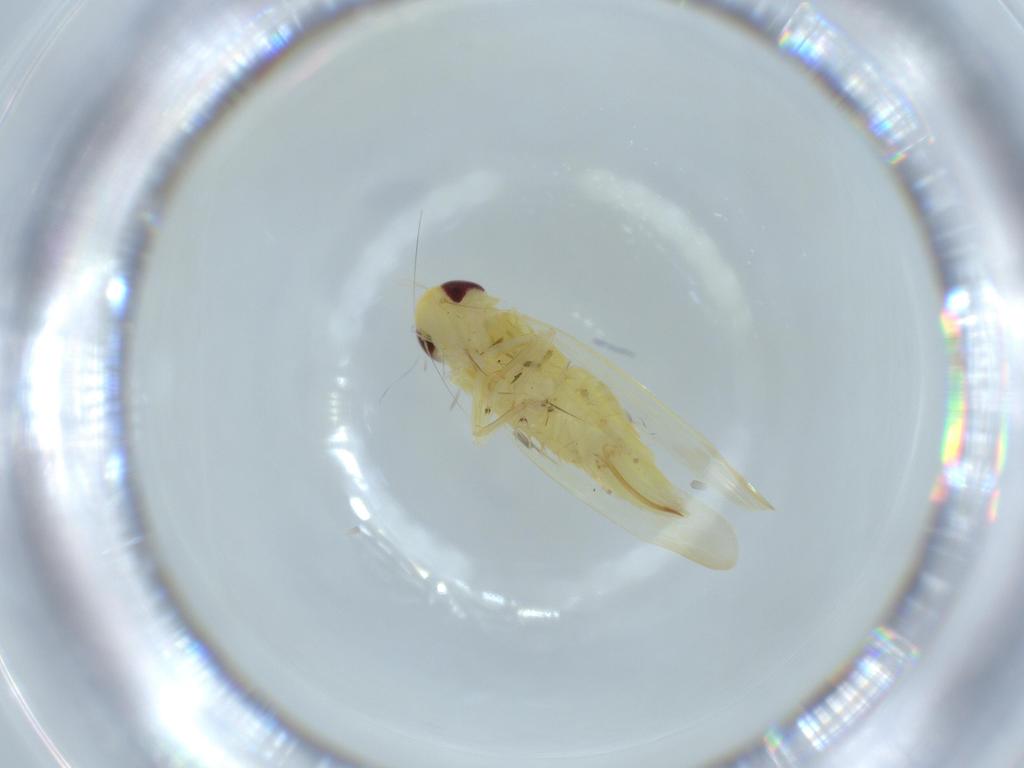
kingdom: Animalia
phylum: Arthropoda
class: Insecta
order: Hemiptera
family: Cicadellidae
